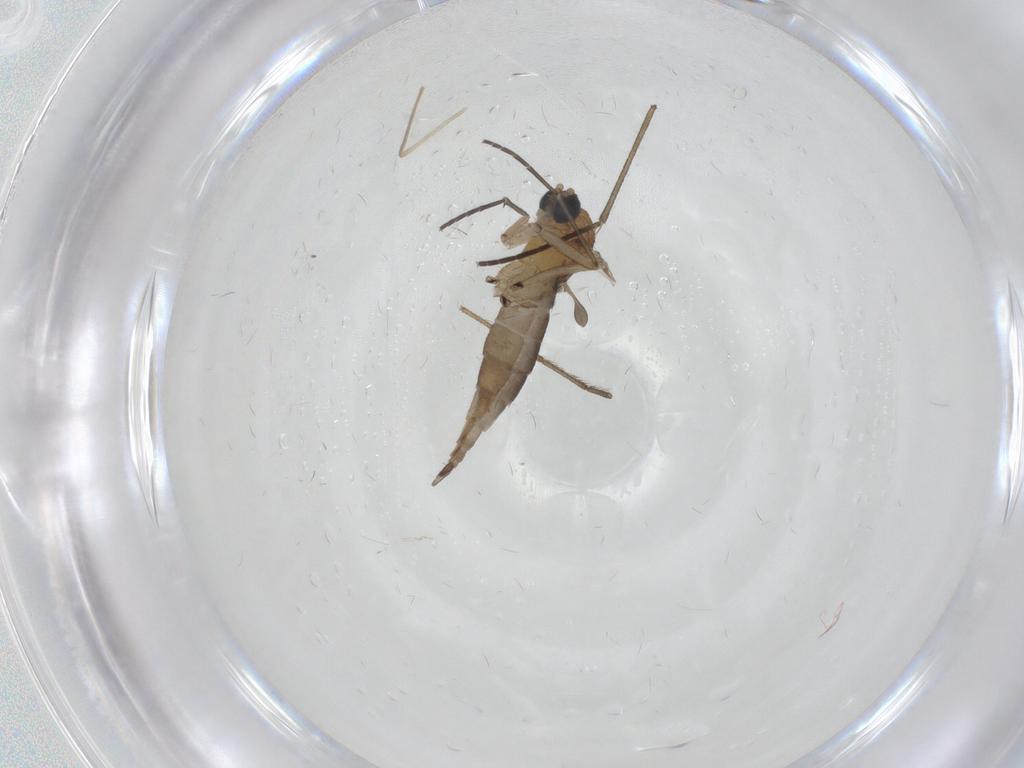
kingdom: Animalia
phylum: Arthropoda
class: Insecta
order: Diptera
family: Sciaridae
